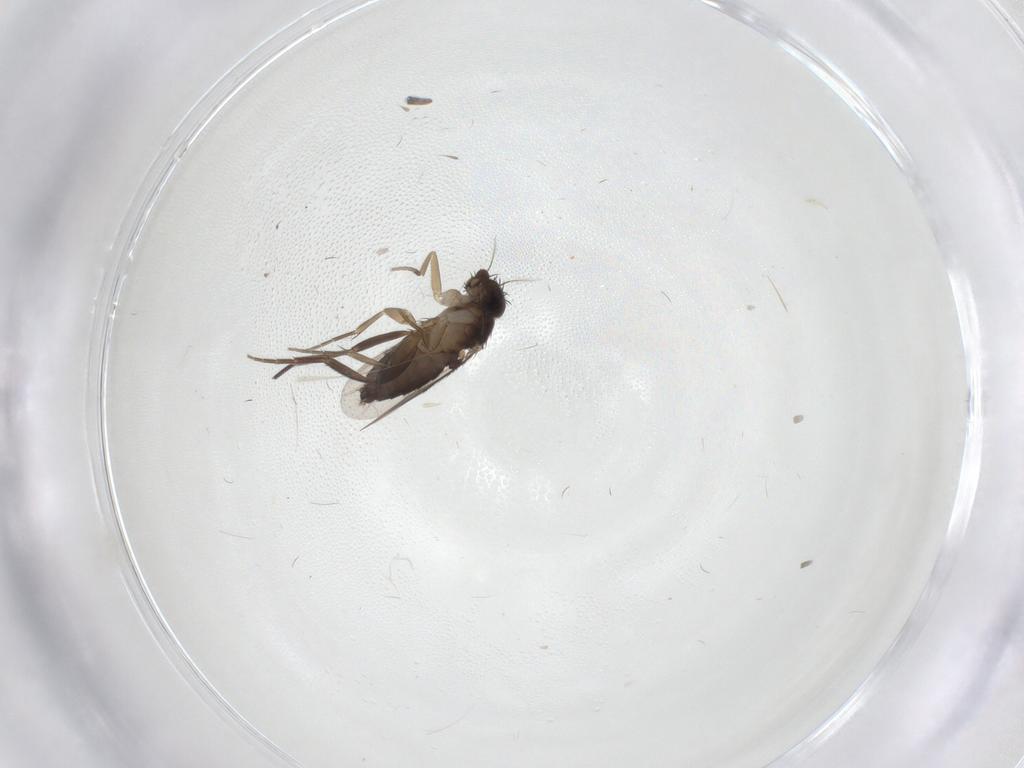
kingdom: Animalia
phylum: Arthropoda
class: Insecta
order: Diptera
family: Phoridae
